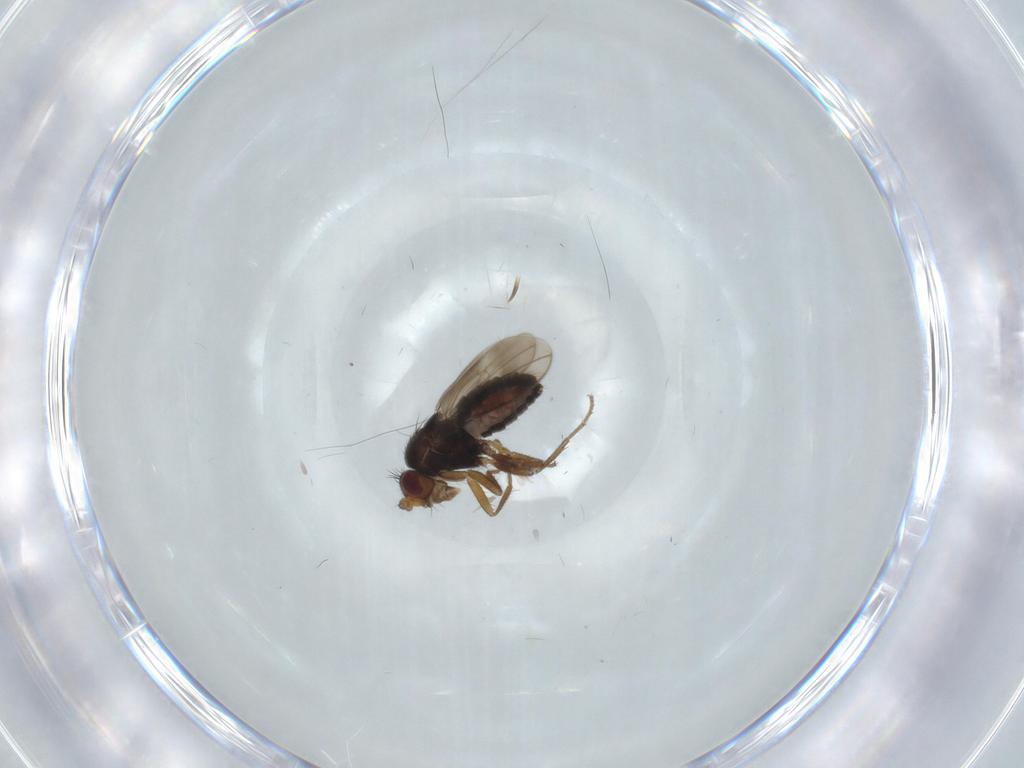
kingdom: Animalia
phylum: Arthropoda
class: Insecta
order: Diptera
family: Sphaeroceridae
